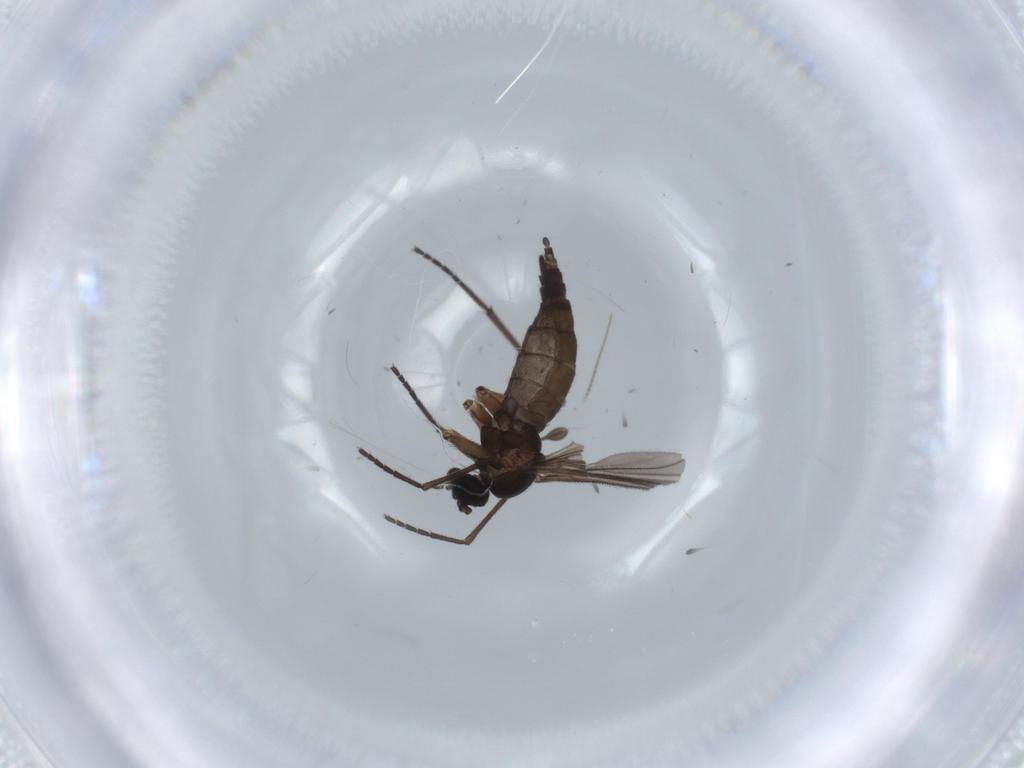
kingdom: Animalia
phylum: Arthropoda
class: Insecta
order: Diptera
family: Sciaridae
